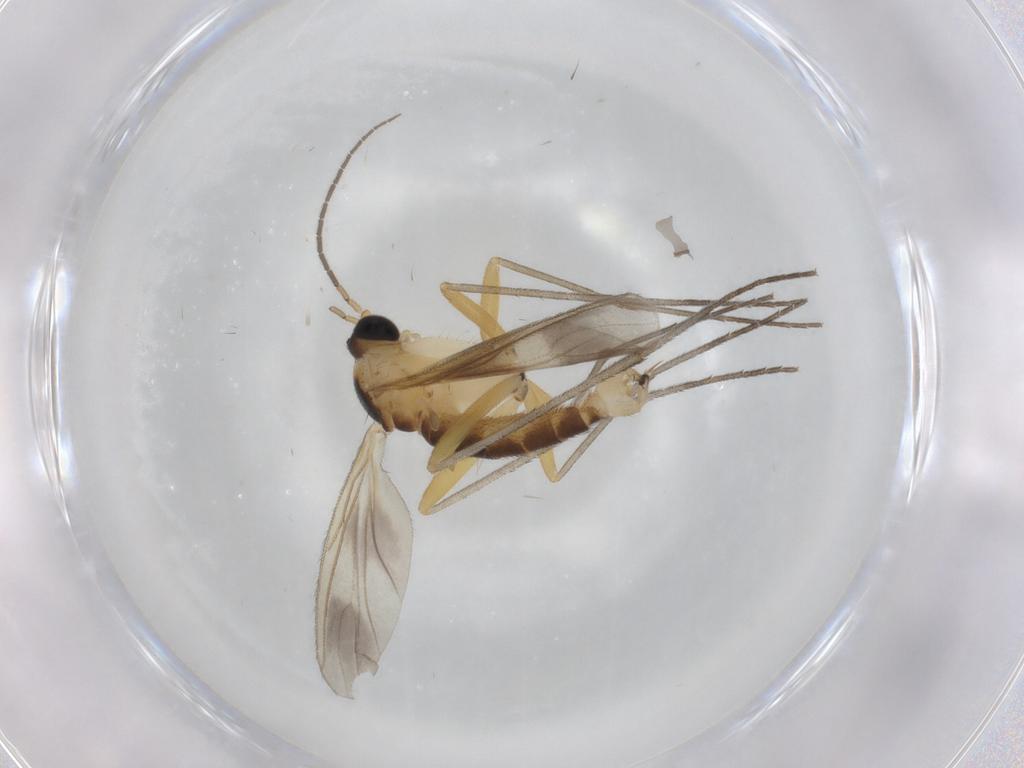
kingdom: Animalia
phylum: Arthropoda
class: Insecta
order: Diptera
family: Sciaridae
